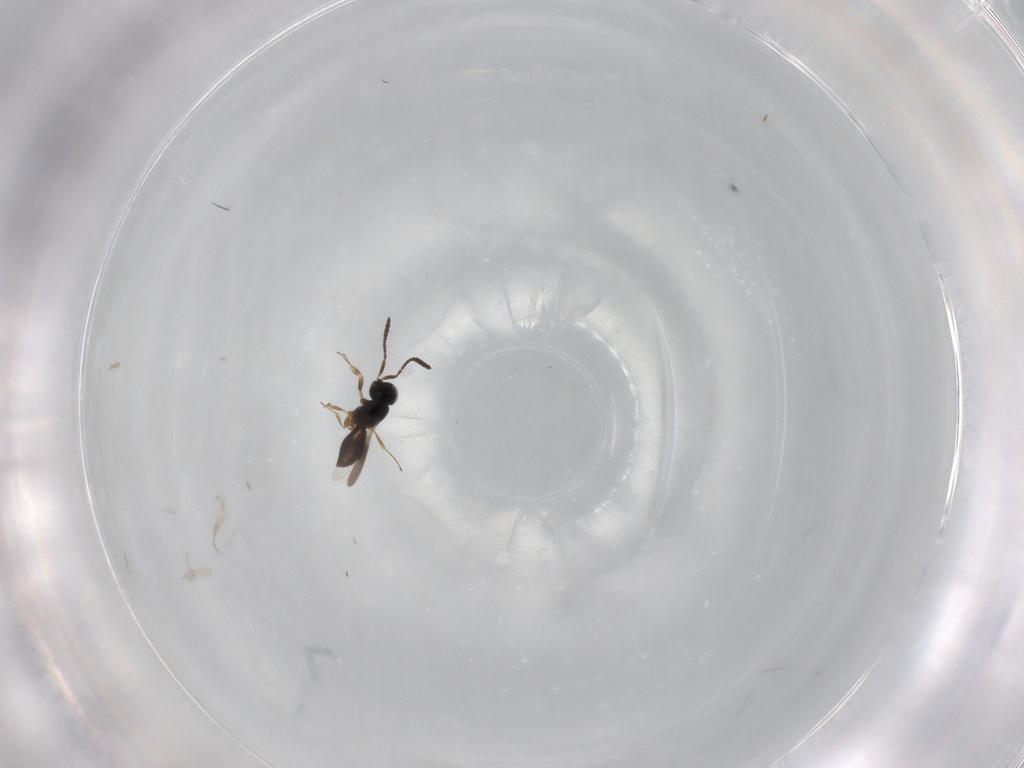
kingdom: Animalia
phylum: Arthropoda
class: Insecta
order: Hymenoptera
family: Scelionidae
